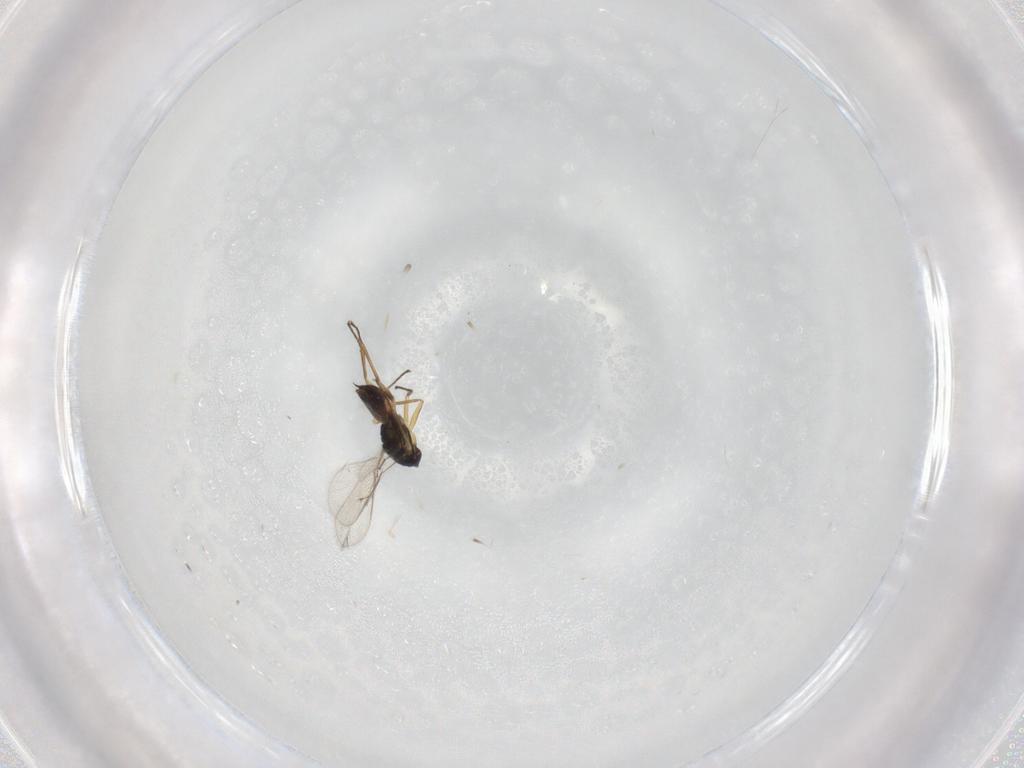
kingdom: Animalia
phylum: Arthropoda
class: Insecta
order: Hymenoptera
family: Eulophidae
